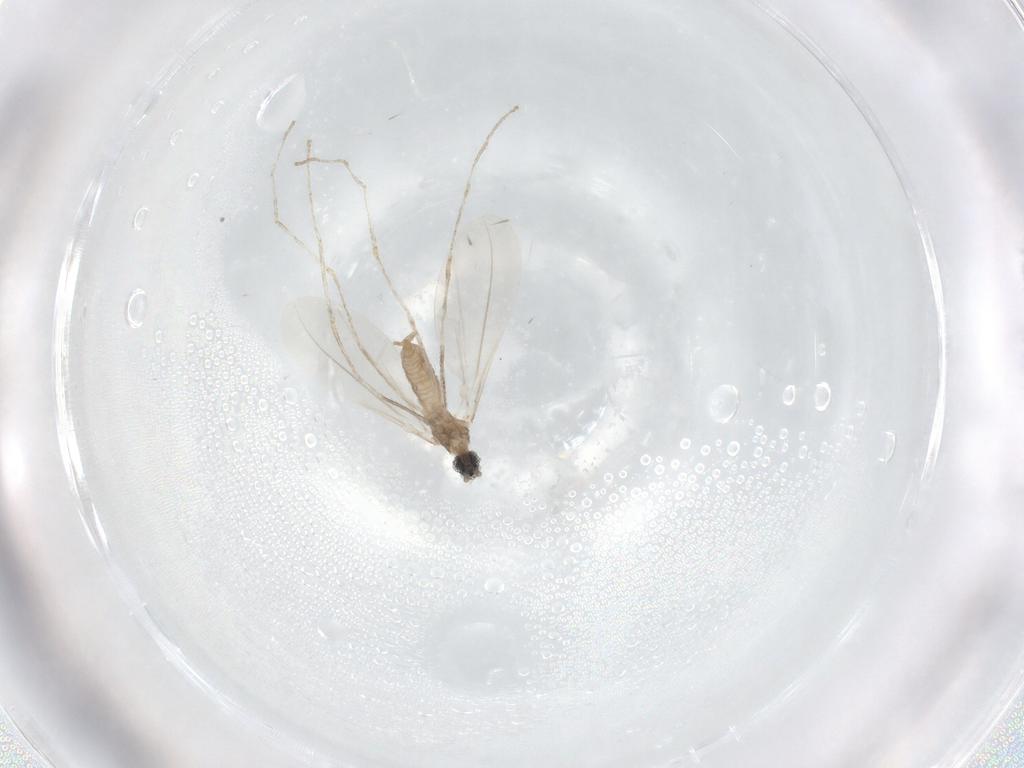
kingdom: Animalia
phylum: Arthropoda
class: Insecta
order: Diptera
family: Cecidomyiidae
